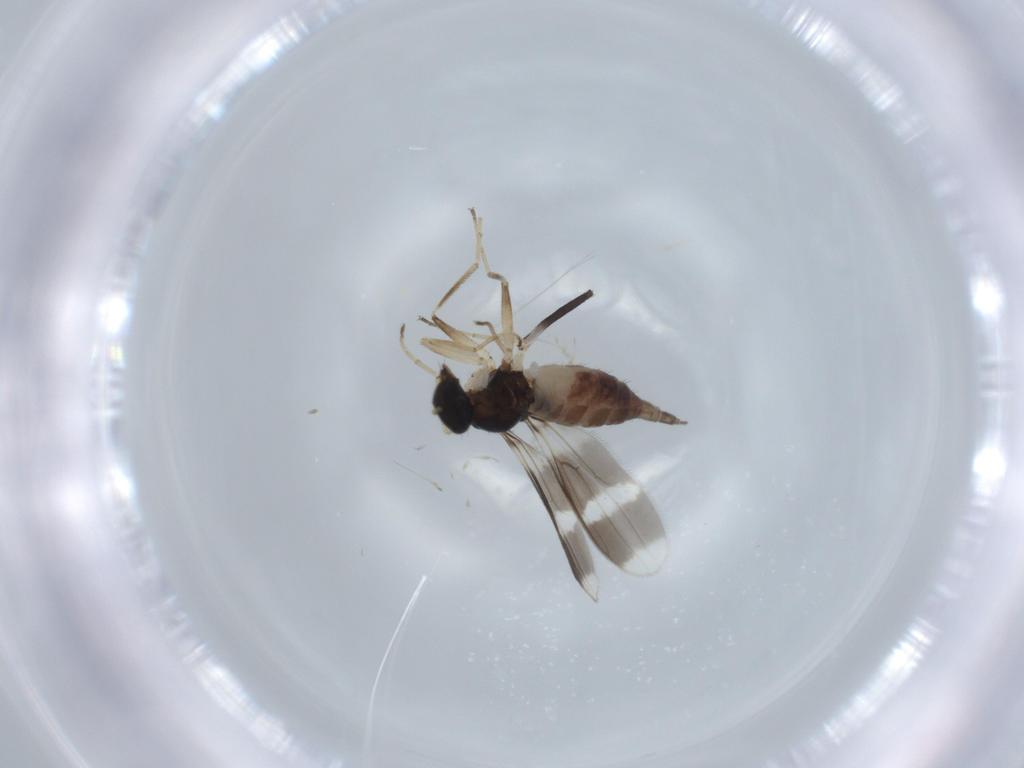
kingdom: Animalia
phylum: Arthropoda
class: Insecta
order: Diptera
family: Hybotidae
